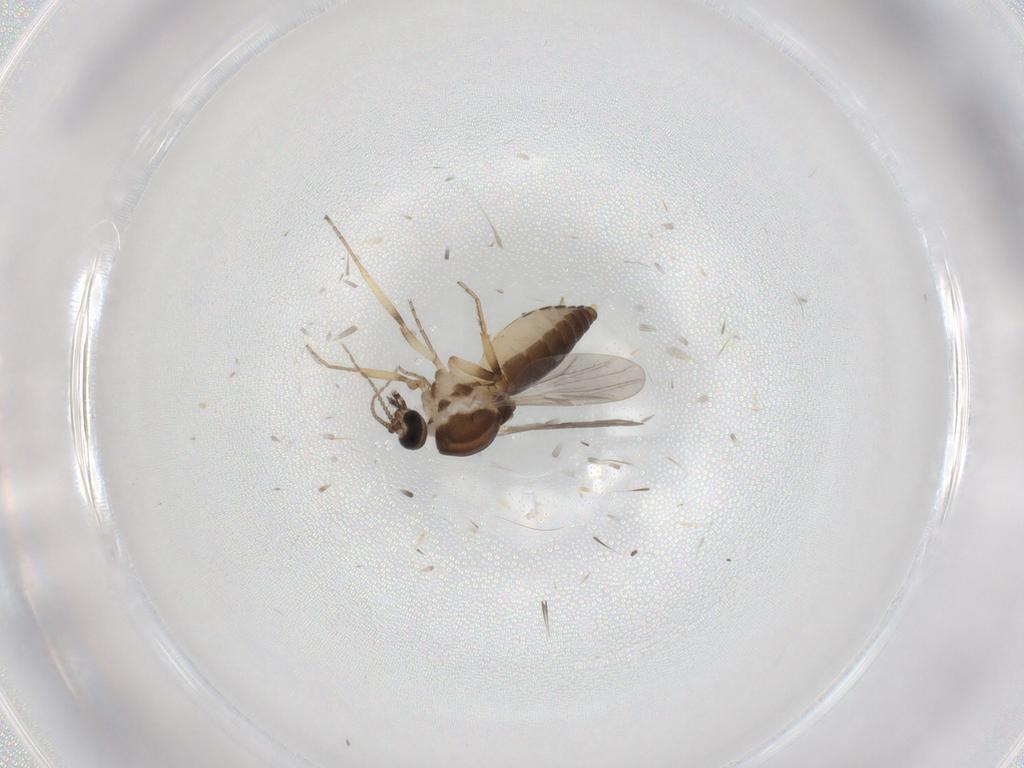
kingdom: Animalia
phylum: Arthropoda
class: Insecta
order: Diptera
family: Ceratopogonidae
